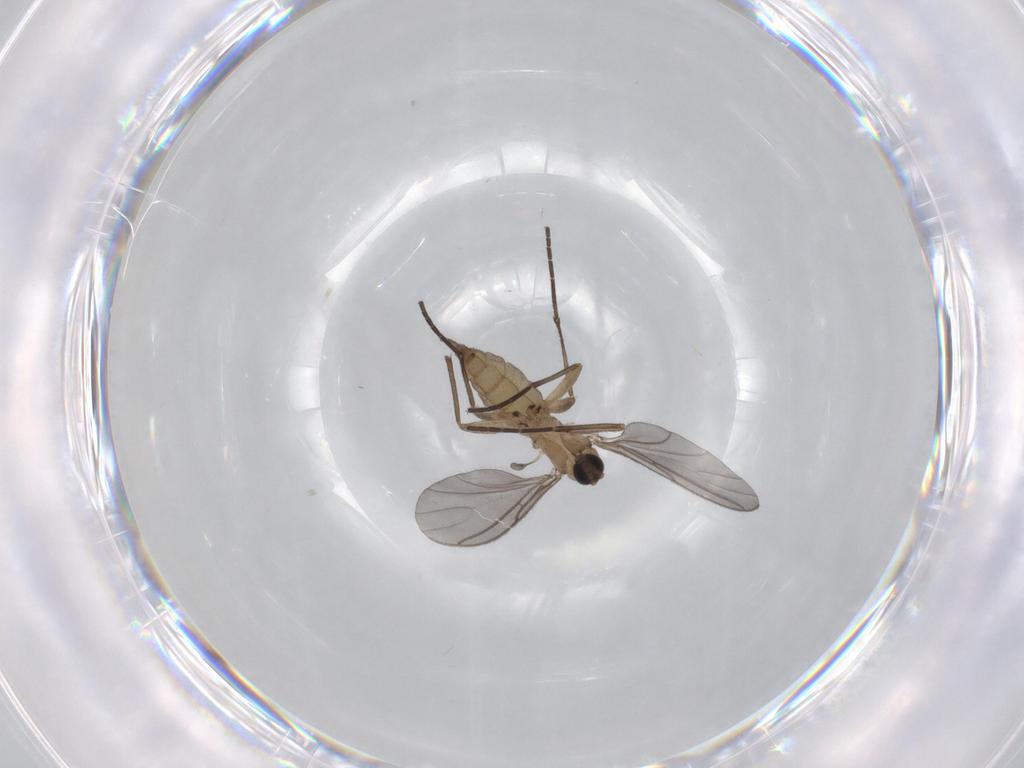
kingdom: Animalia
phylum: Arthropoda
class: Insecta
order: Diptera
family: Sciaridae
